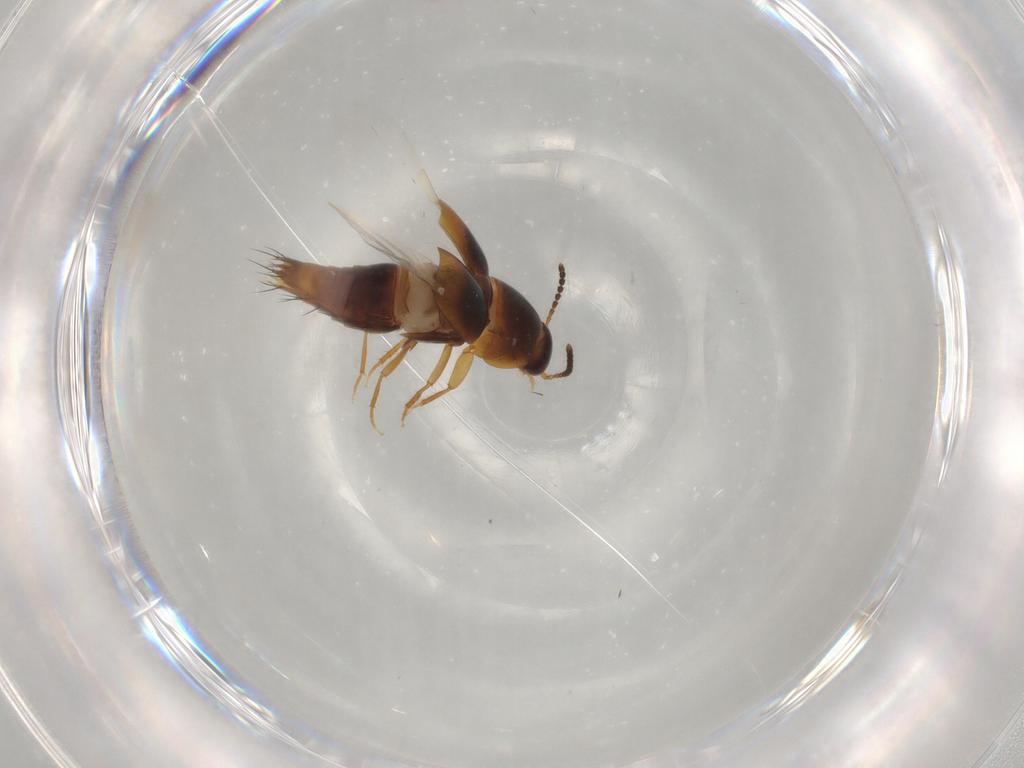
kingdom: Animalia
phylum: Arthropoda
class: Insecta
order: Coleoptera
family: Staphylinidae
